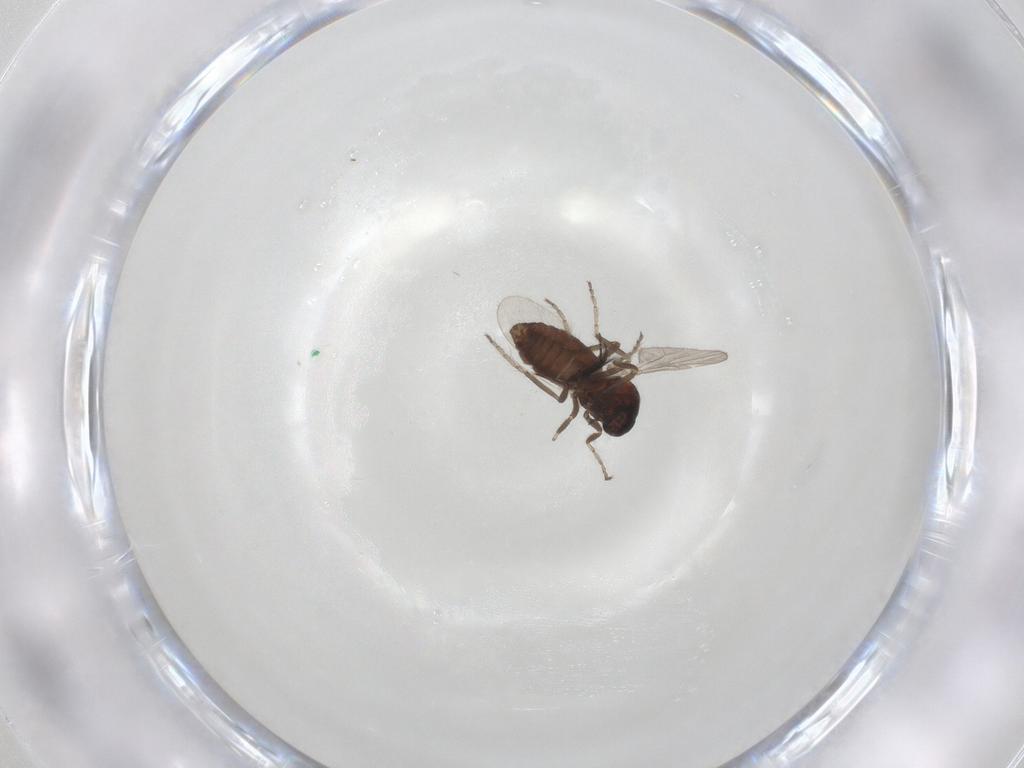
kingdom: Animalia
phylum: Arthropoda
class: Insecta
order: Diptera
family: Ceratopogonidae
